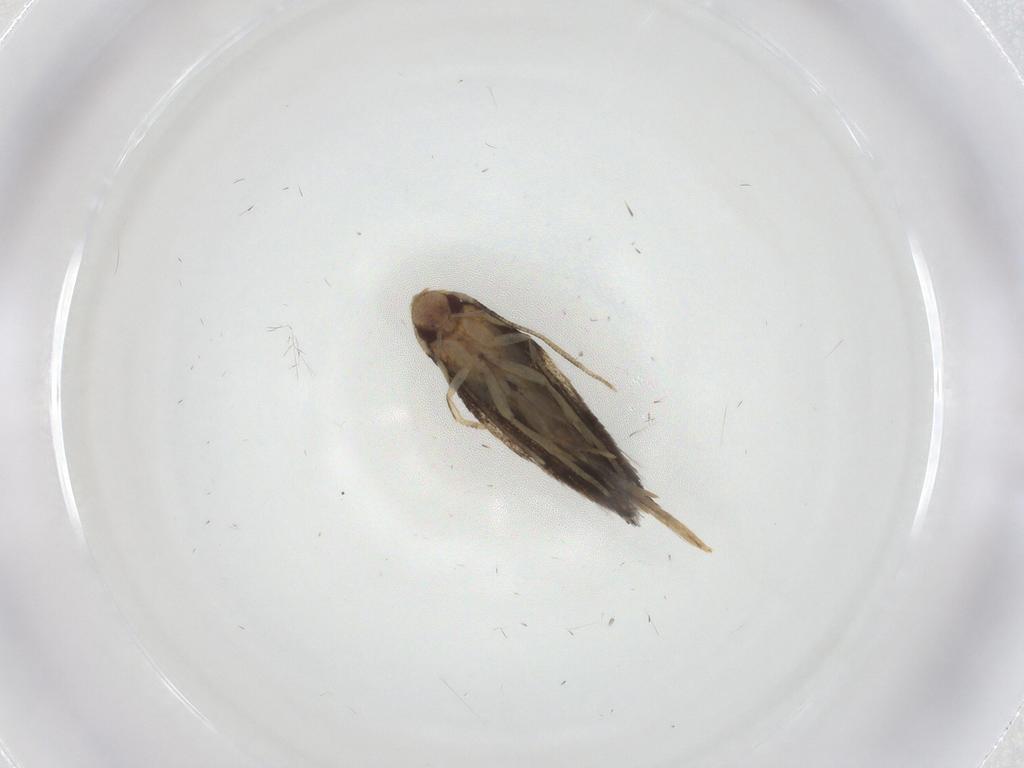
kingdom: Animalia
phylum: Arthropoda
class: Insecta
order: Lepidoptera
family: Gelechiidae
